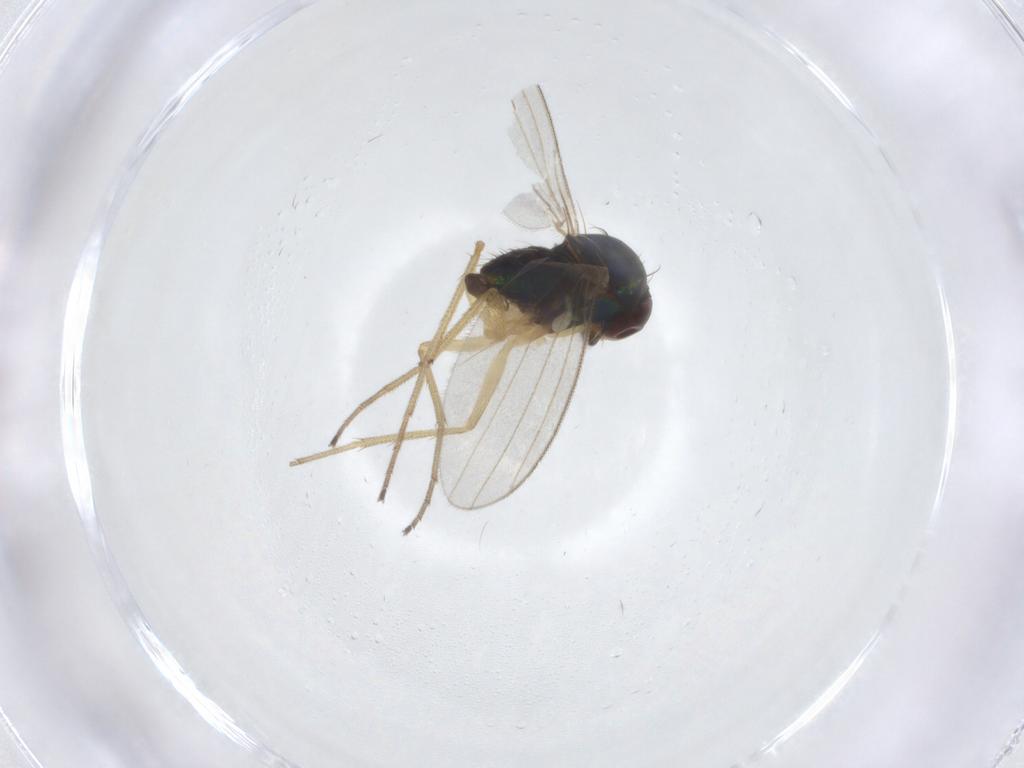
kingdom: Animalia
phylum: Arthropoda
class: Insecta
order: Diptera
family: Dolichopodidae
